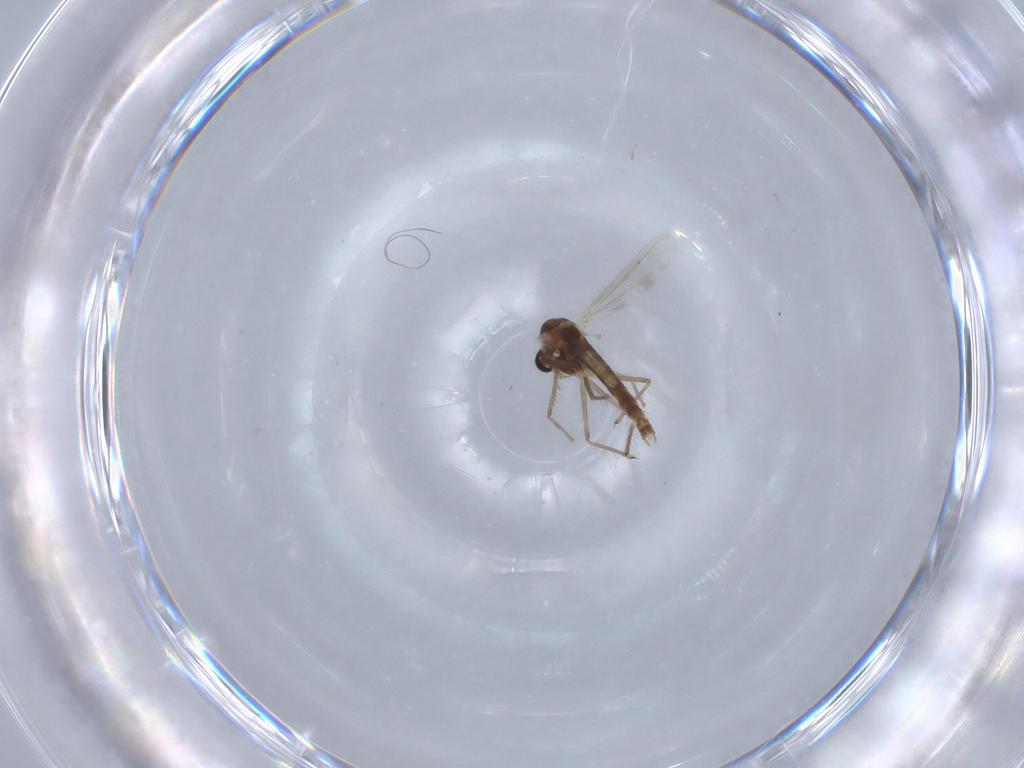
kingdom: Animalia
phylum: Arthropoda
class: Insecta
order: Diptera
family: Chironomidae
